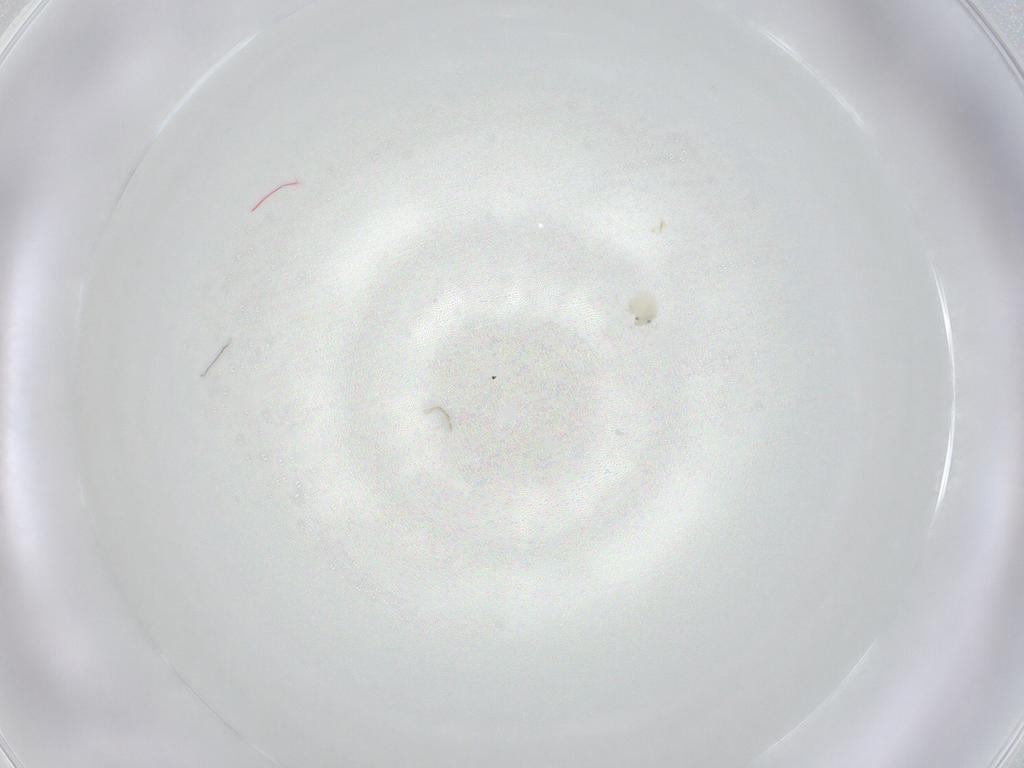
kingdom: Animalia
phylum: Arthropoda
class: Arachnida
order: Trombidiformes
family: Arrenuridae
